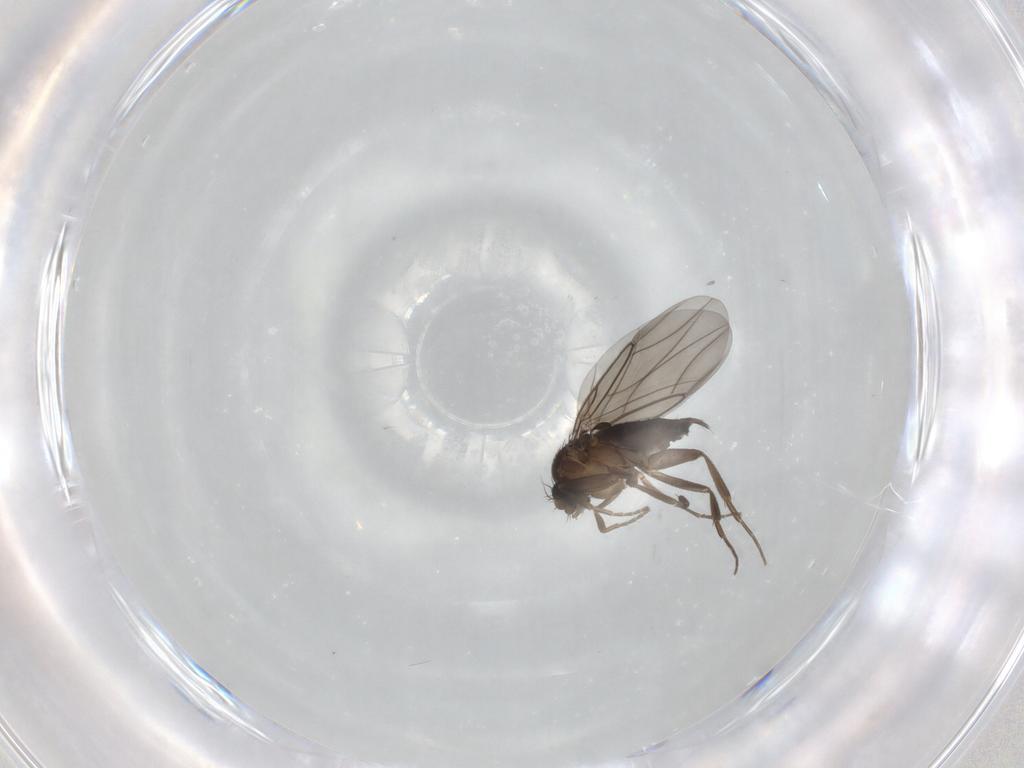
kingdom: Animalia
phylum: Arthropoda
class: Insecta
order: Diptera
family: Phoridae
